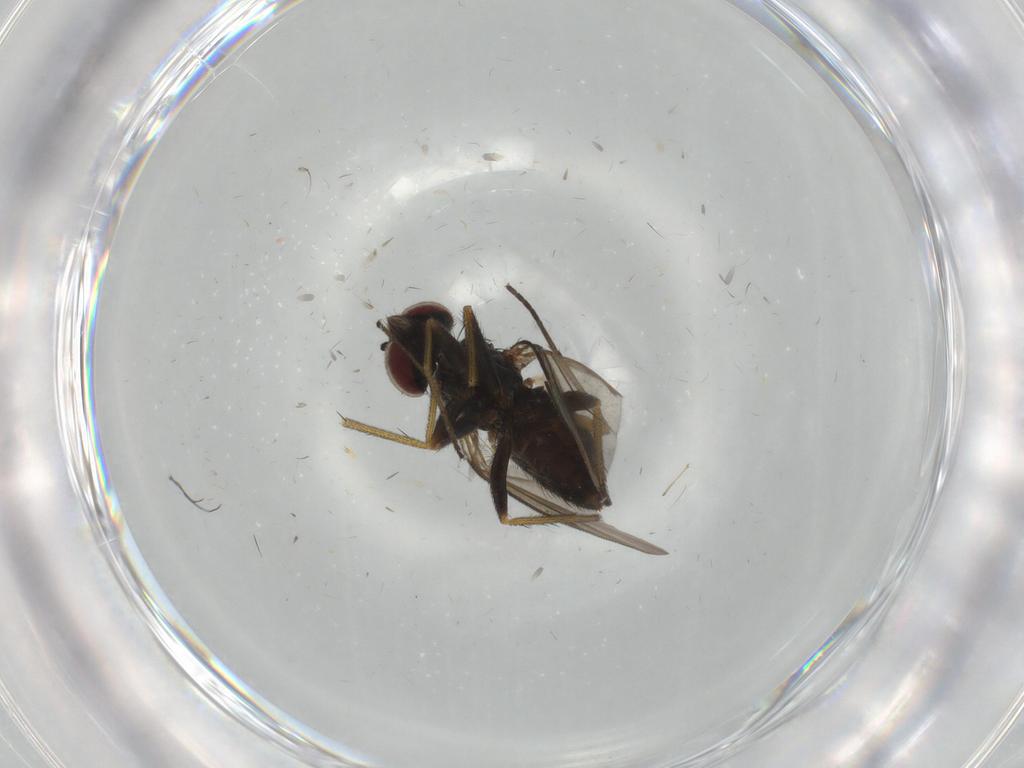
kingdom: Animalia
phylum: Arthropoda
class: Insecta
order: Diptera
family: Dolichopodidae
